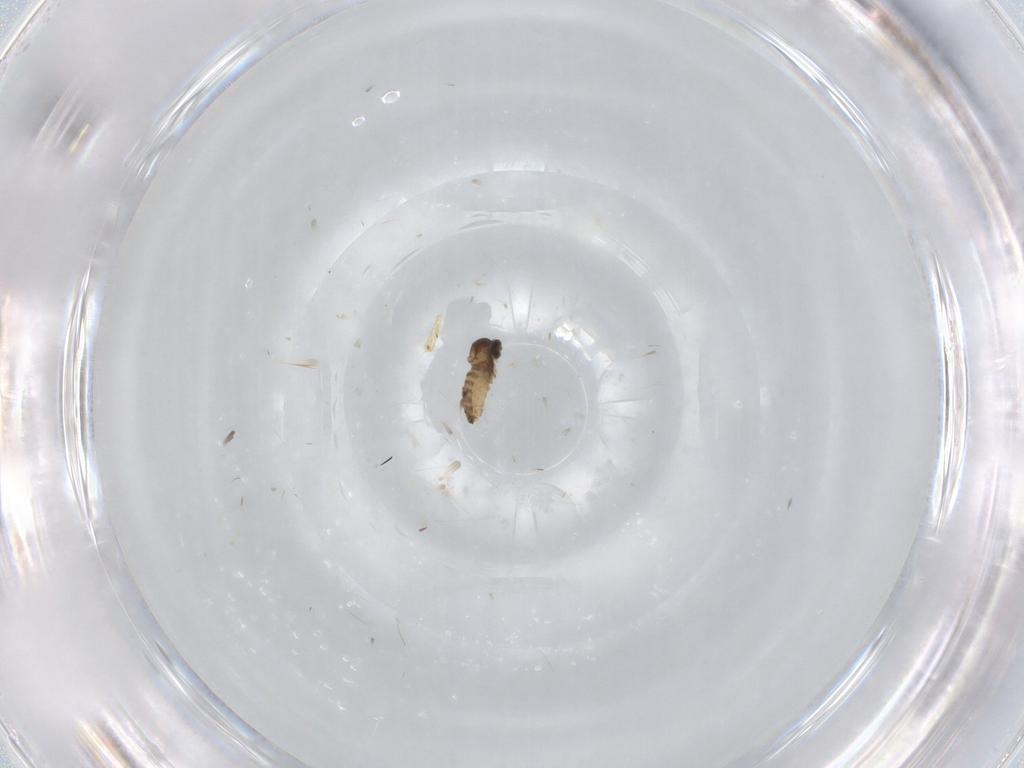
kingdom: Animalia
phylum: Arthropoda
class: Insecta
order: Diptera
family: Cecidomyiidae
